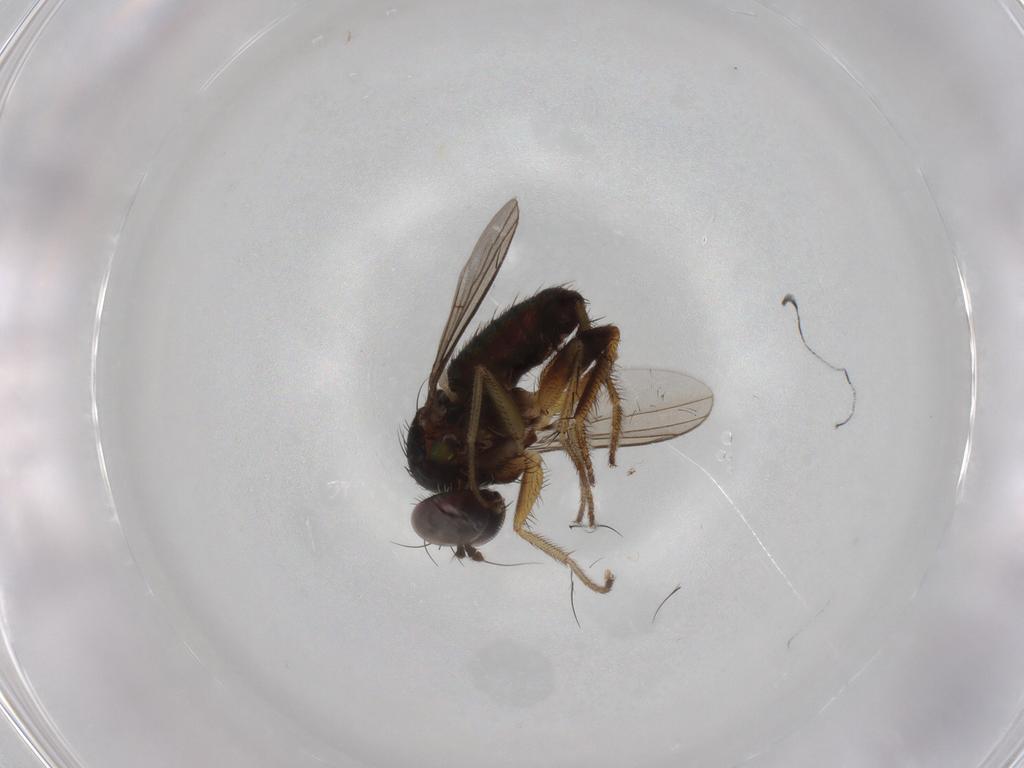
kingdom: Animalia
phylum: Arthropoda
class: Insecta
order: Diptera
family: Dolichopodidae
